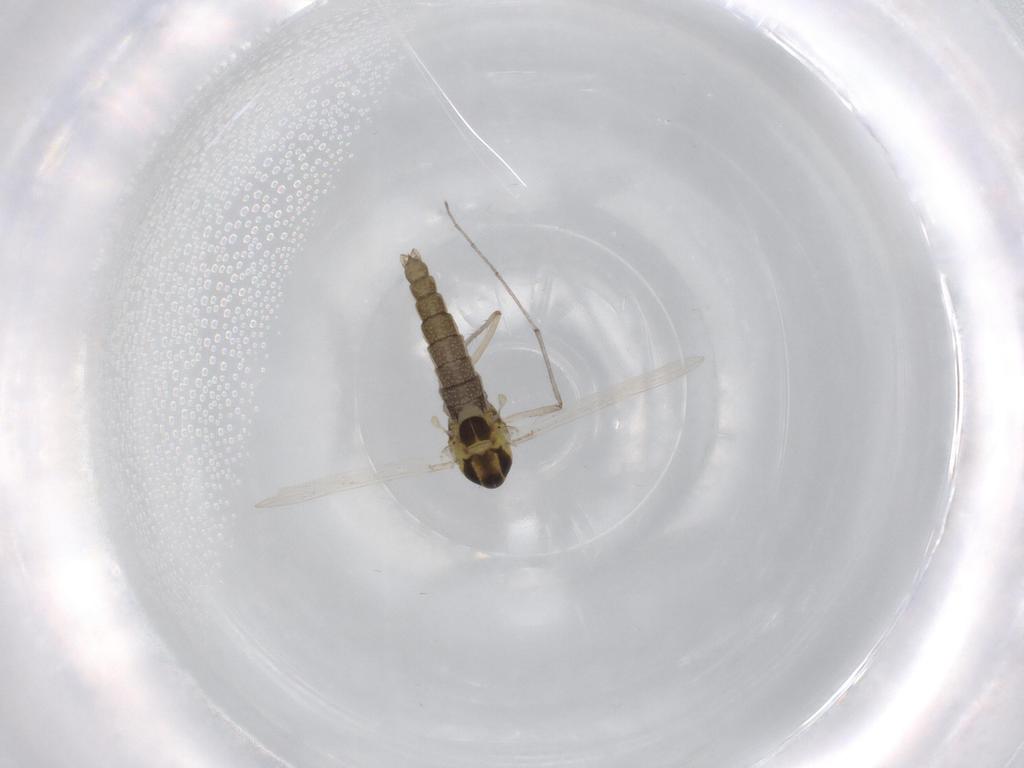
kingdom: Animalia
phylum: Arthropoda
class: Insecta
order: Diptera
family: Chironomidae
